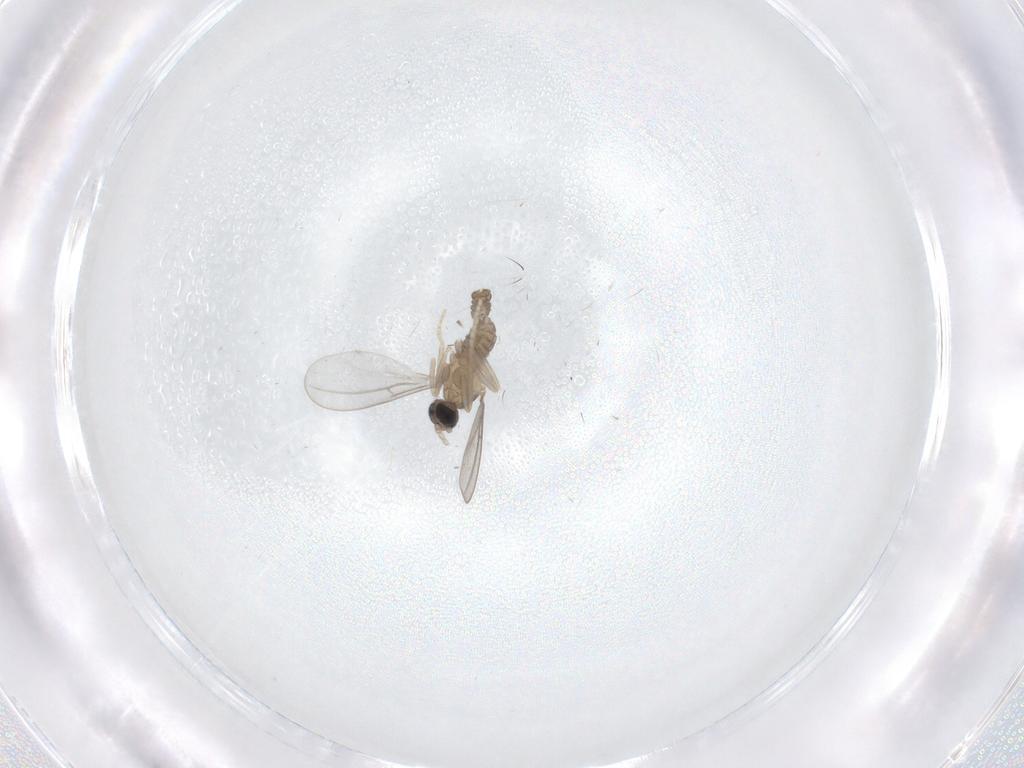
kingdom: Animalia
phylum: Arthropoda
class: Insecta
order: Diptera
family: Cecidomyiidae
